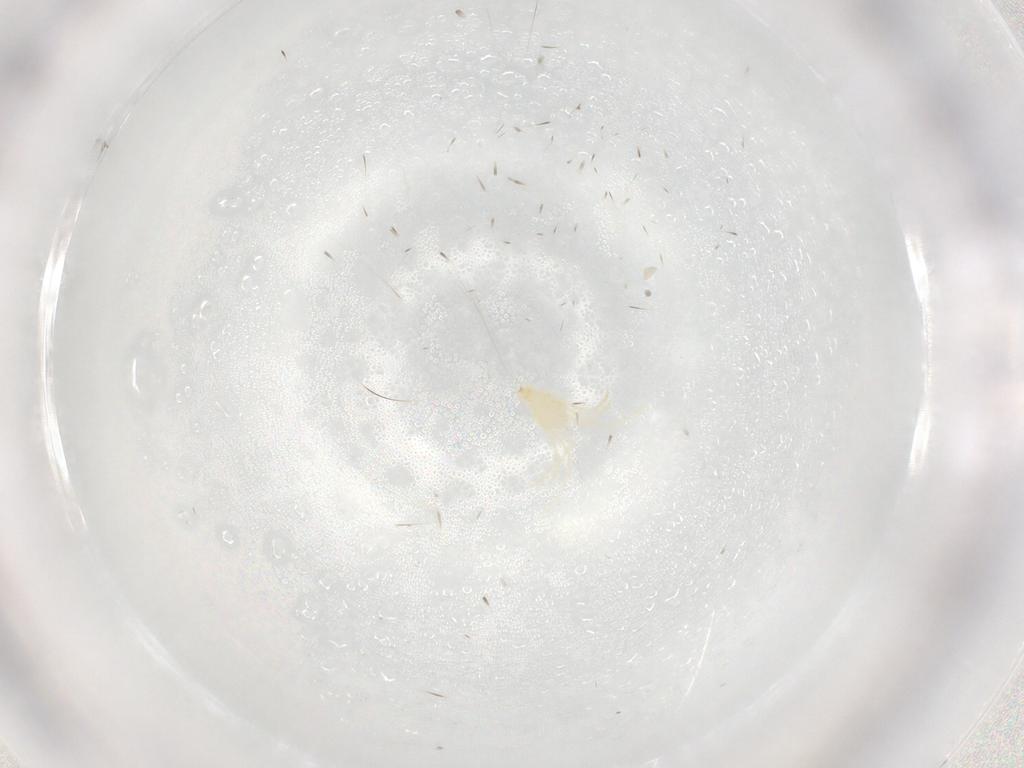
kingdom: Animalia
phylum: Arthropoda
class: Arachnida
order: Trombidiformes
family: Erythraeidae
